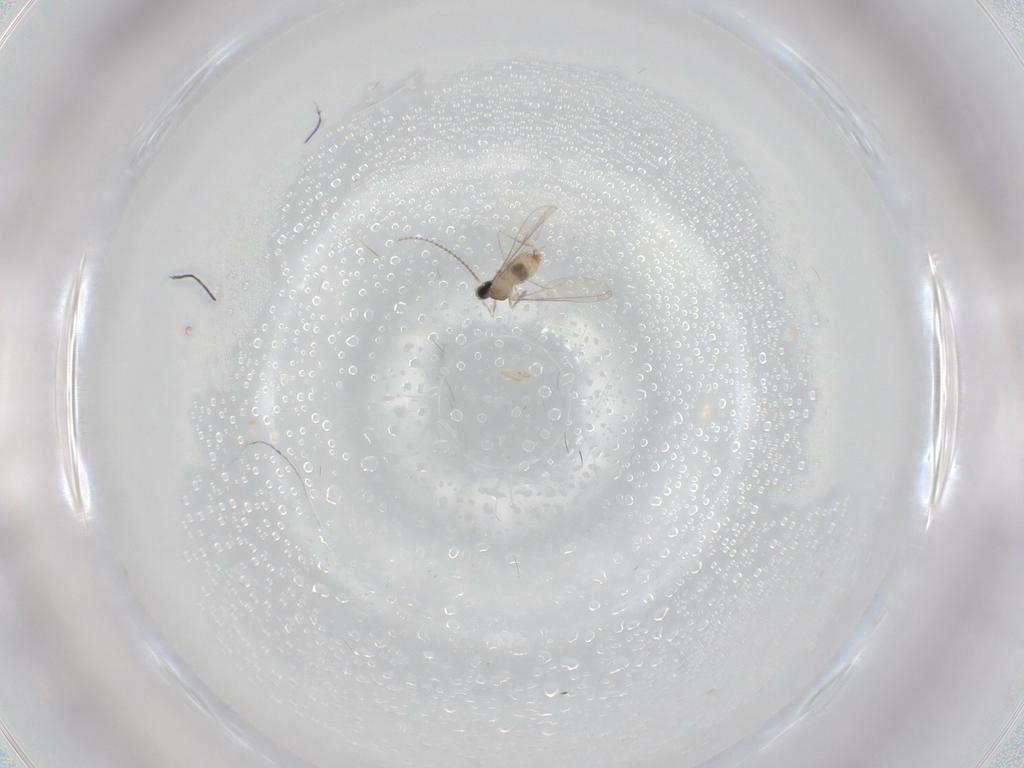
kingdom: Animalia
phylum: Arthropoda
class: Insecta
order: Diptera
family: Cecidomyiidae
